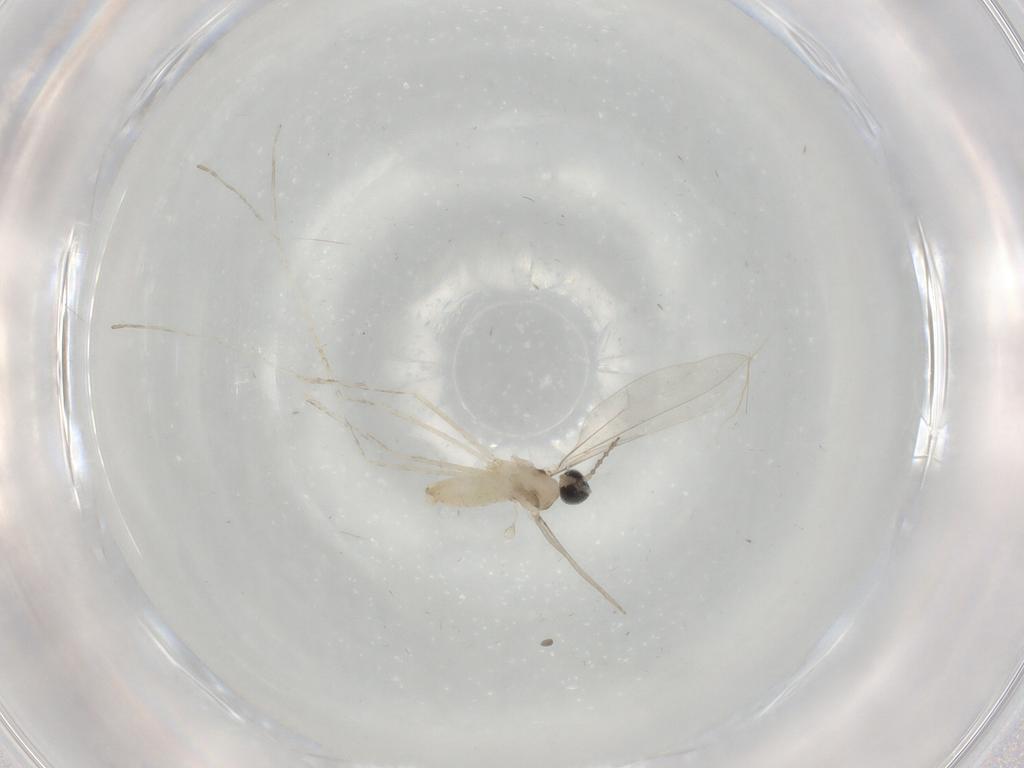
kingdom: Animalia
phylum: Arthropoda
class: Insecta
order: Diptera
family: Cecidomyiidae
